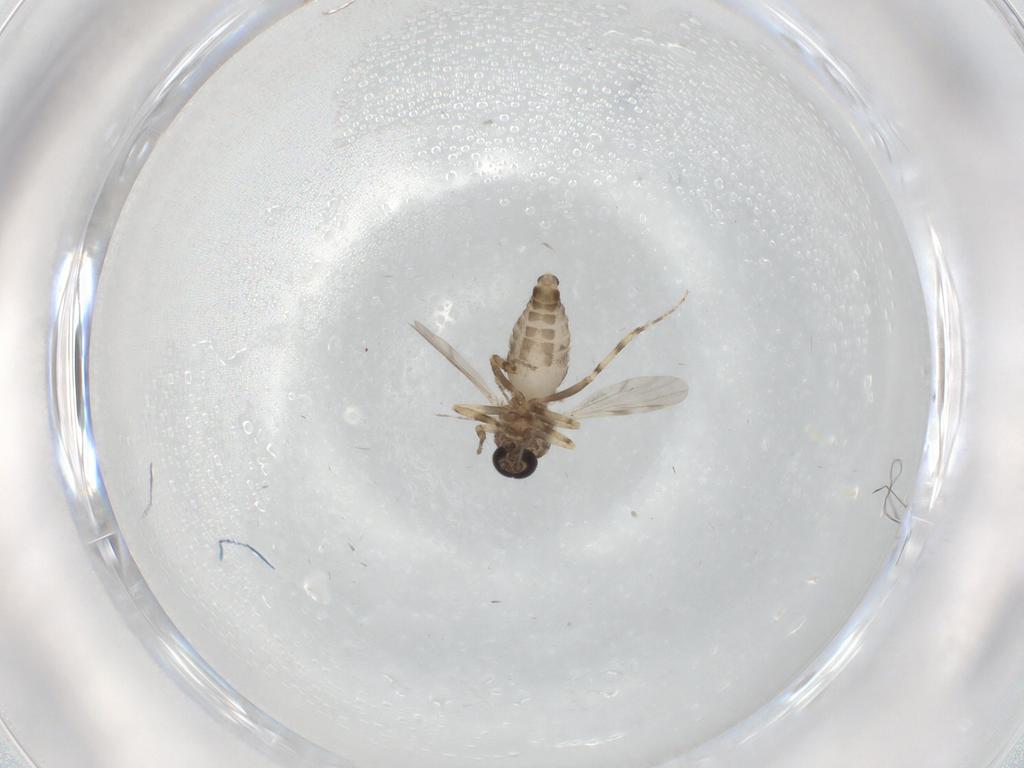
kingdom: Animalia
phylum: Arthropoda
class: Insecta
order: Diptera
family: Ceratopogonidae
